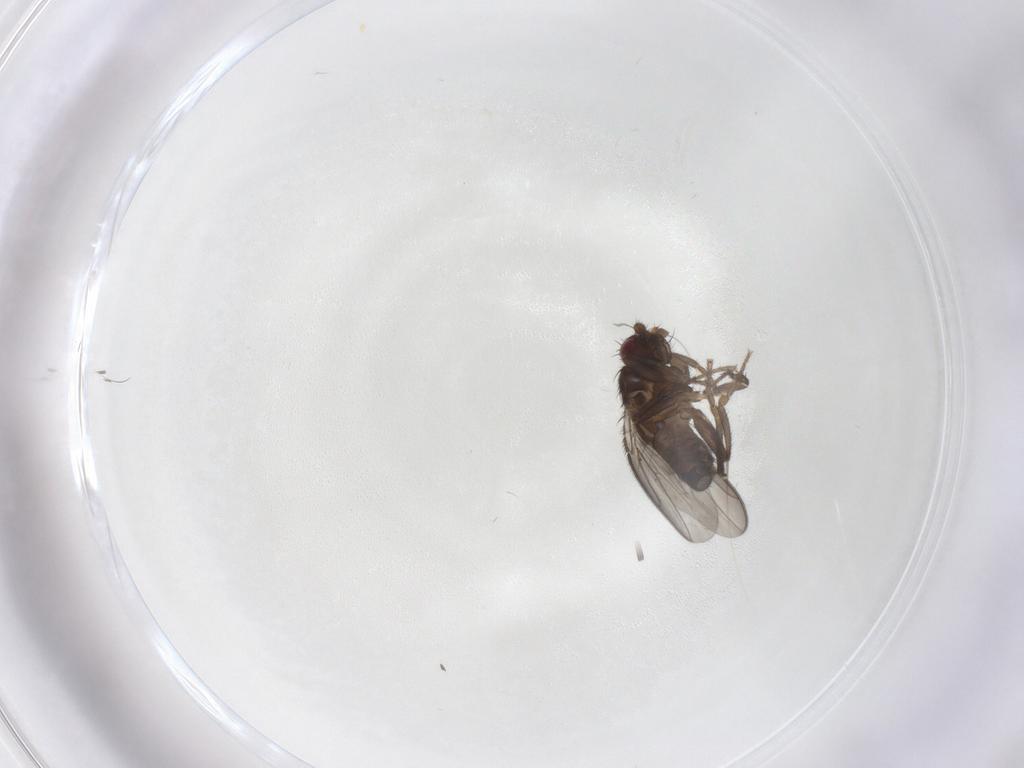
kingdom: Animalia
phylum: Arthropoda
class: Insecta
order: Diptera
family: Sphaeroceridae
